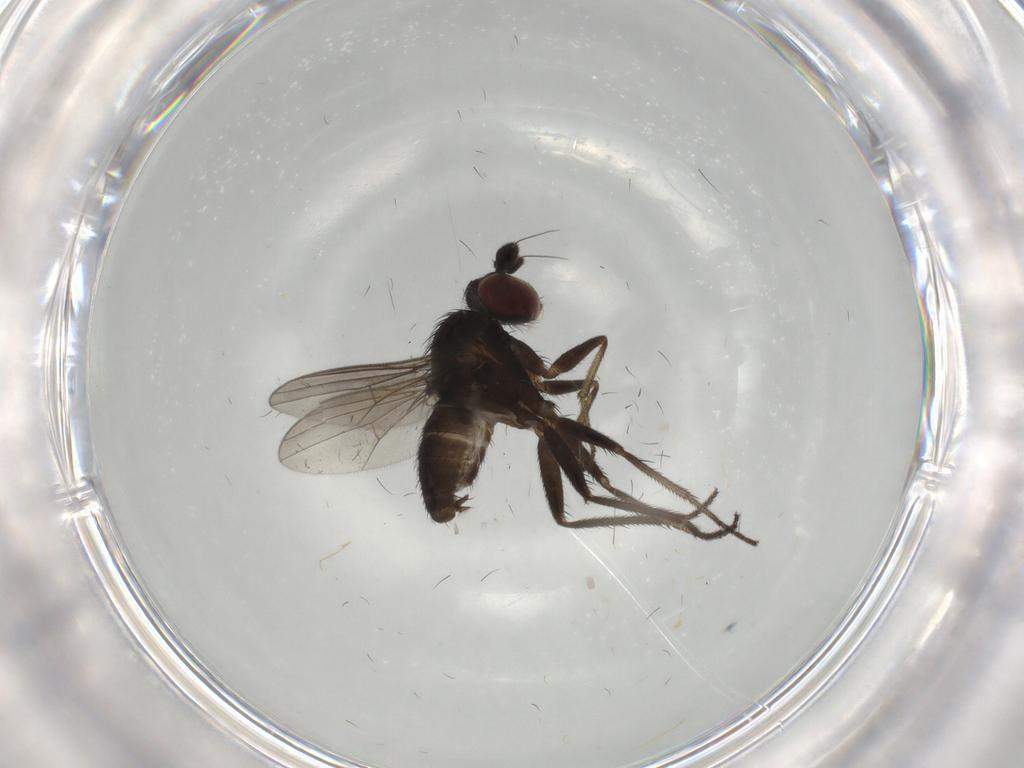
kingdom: Animalia
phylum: Arthropoda
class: Insecta
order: Diptera
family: Dolichopodidae
